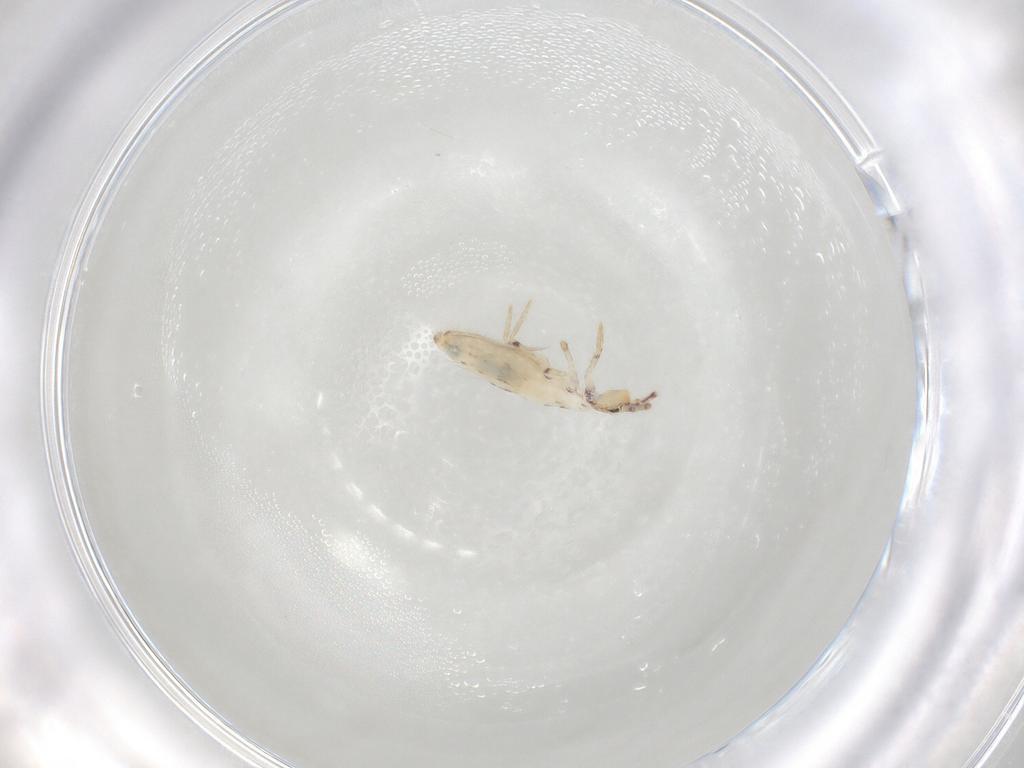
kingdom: Animalia
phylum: Arthropoda
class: Collembola
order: Entomobryomorpha
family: Entomobryidae
